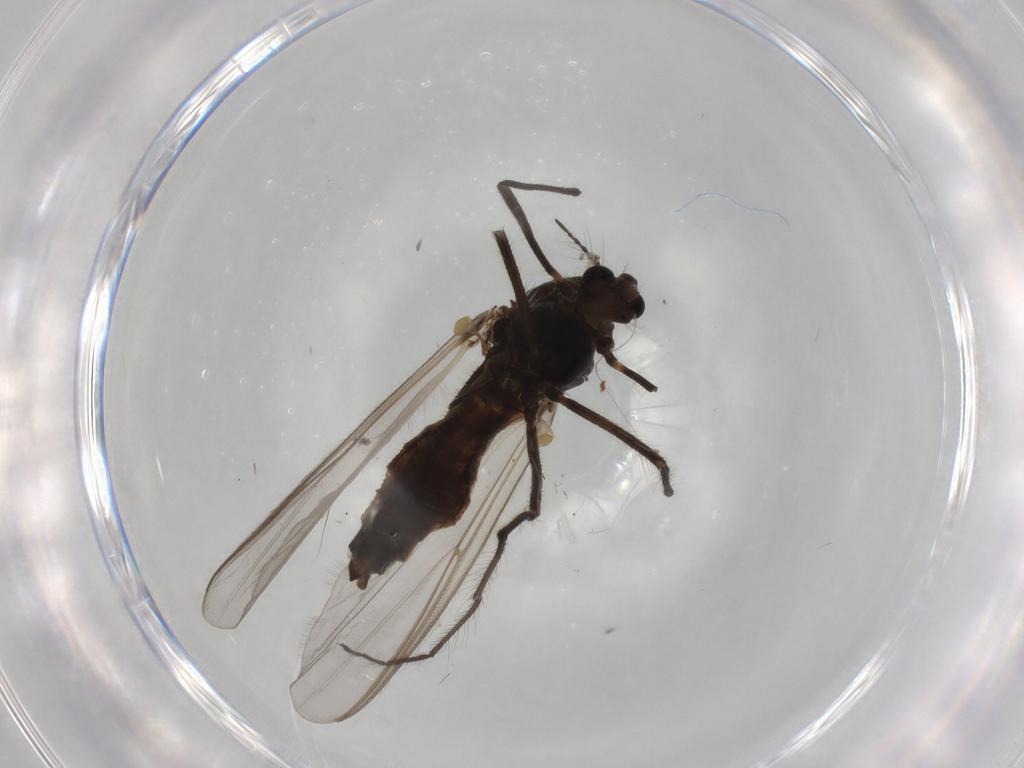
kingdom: Animalia
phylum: Arthropoda
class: Insecta
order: Diptera
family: Chironomidae
